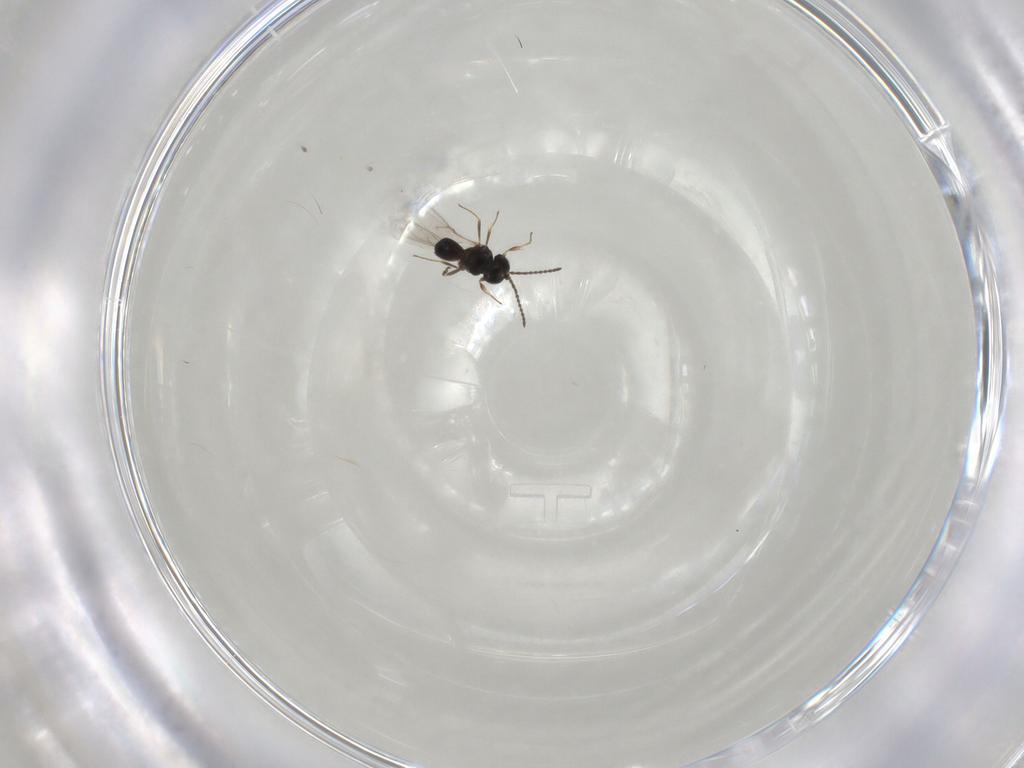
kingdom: Animalia
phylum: Arthropoda
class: Insecta
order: Hymenoptera
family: Scelionidae
